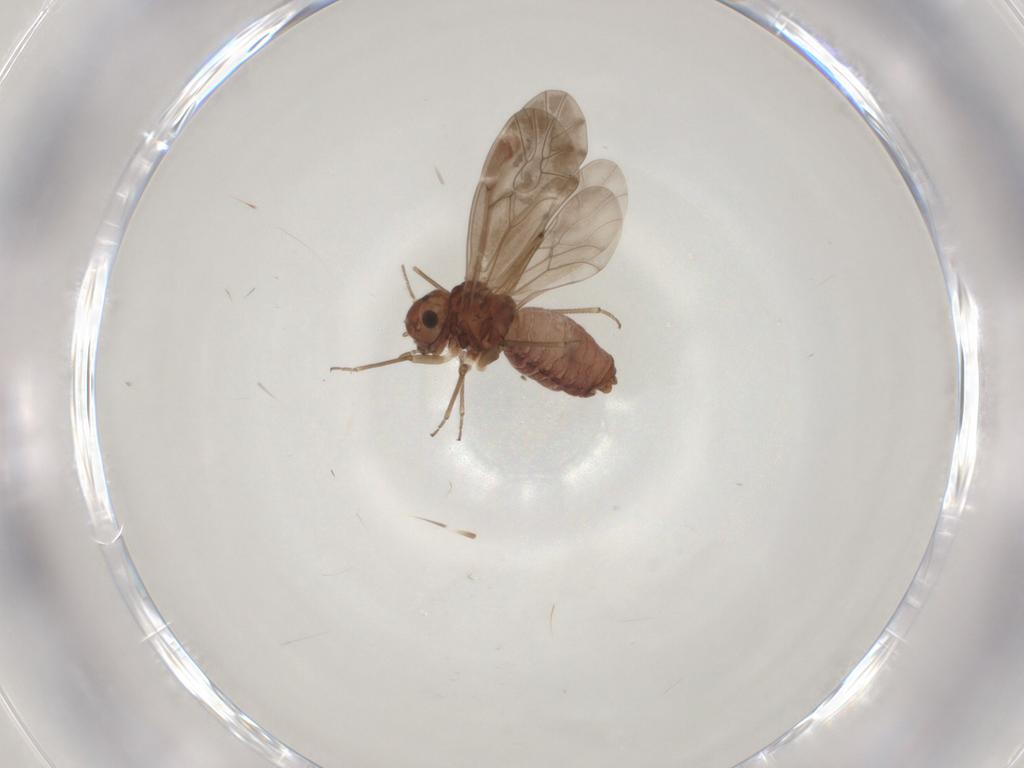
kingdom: Animalia
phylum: Arthropoda
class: Insecta
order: Psocodea
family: Peripsocidae
